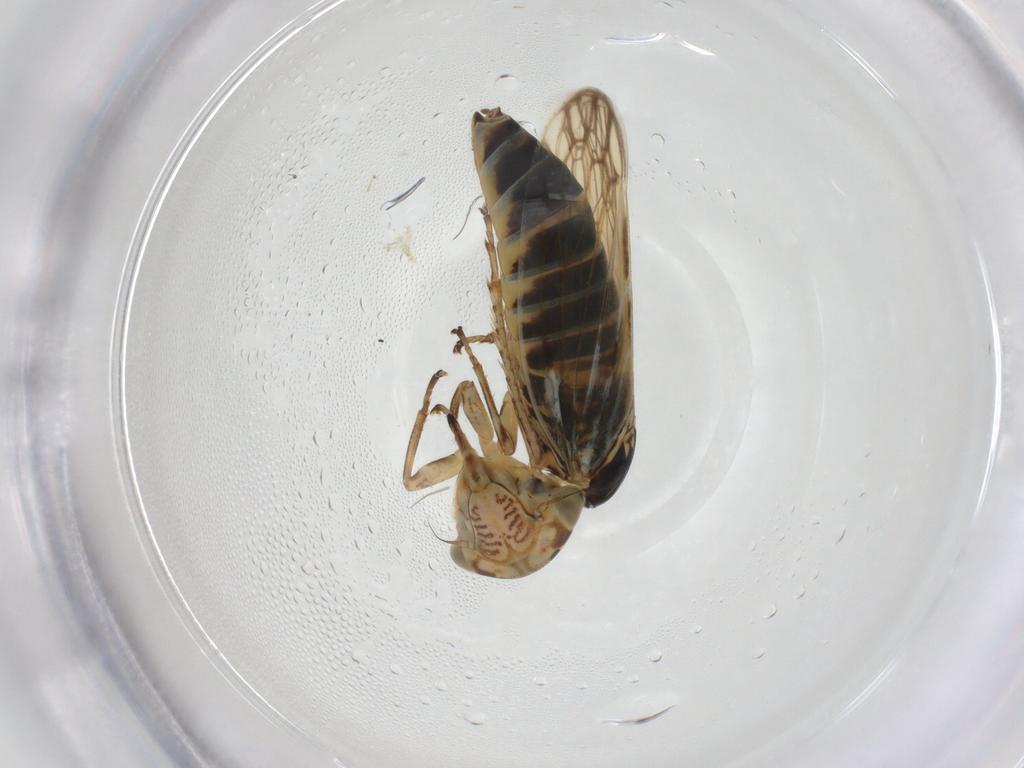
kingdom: Animalia
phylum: Arthropoda
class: Insecta
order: Hemiptera
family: Cicadellidae
